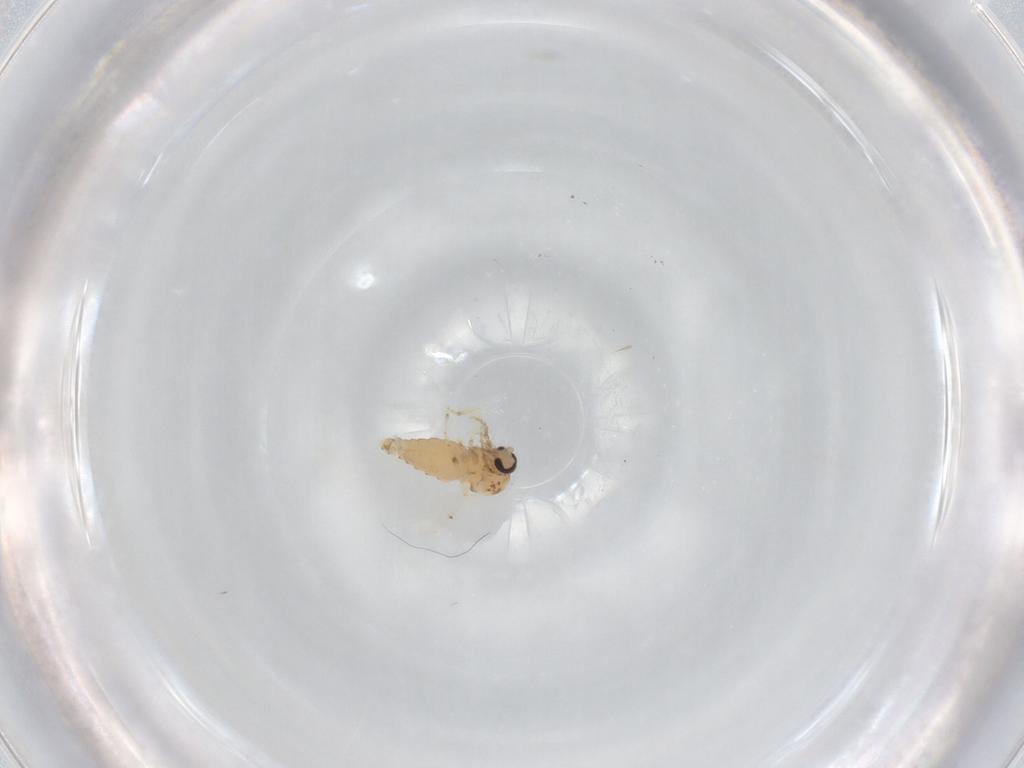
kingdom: Animalia
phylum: Arthropoda
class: Insecta
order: Diptera
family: Ceratopogonidae
